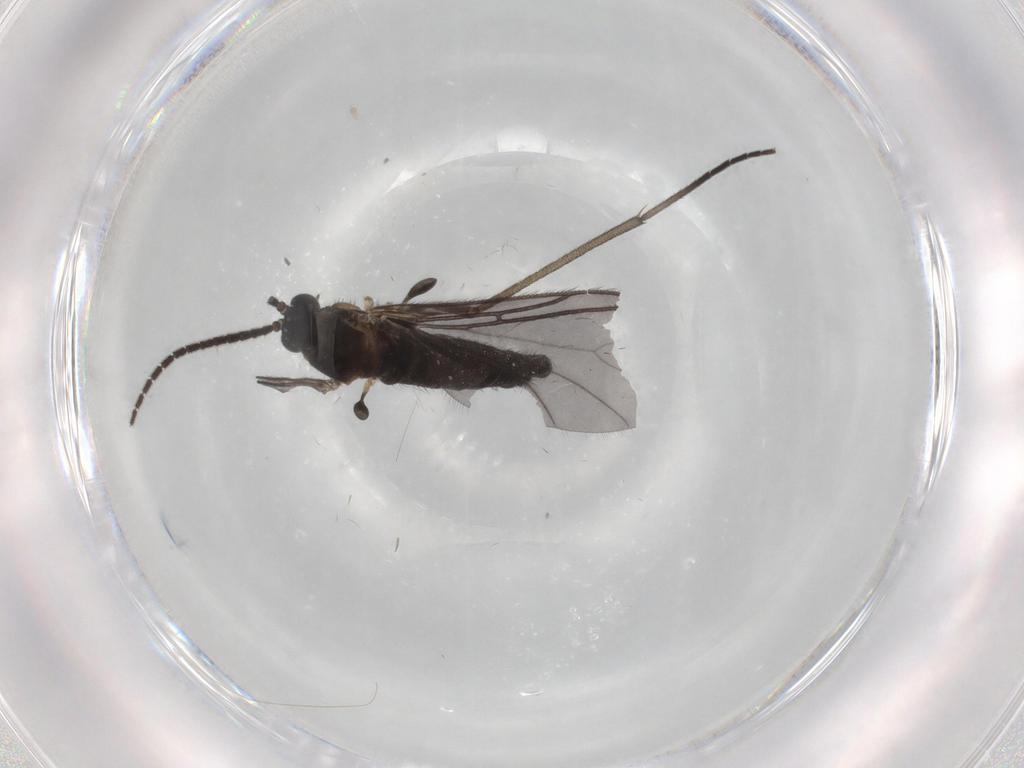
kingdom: Animalia
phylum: Arthropoda
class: Insecta
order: Diptera
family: Sciaridae
